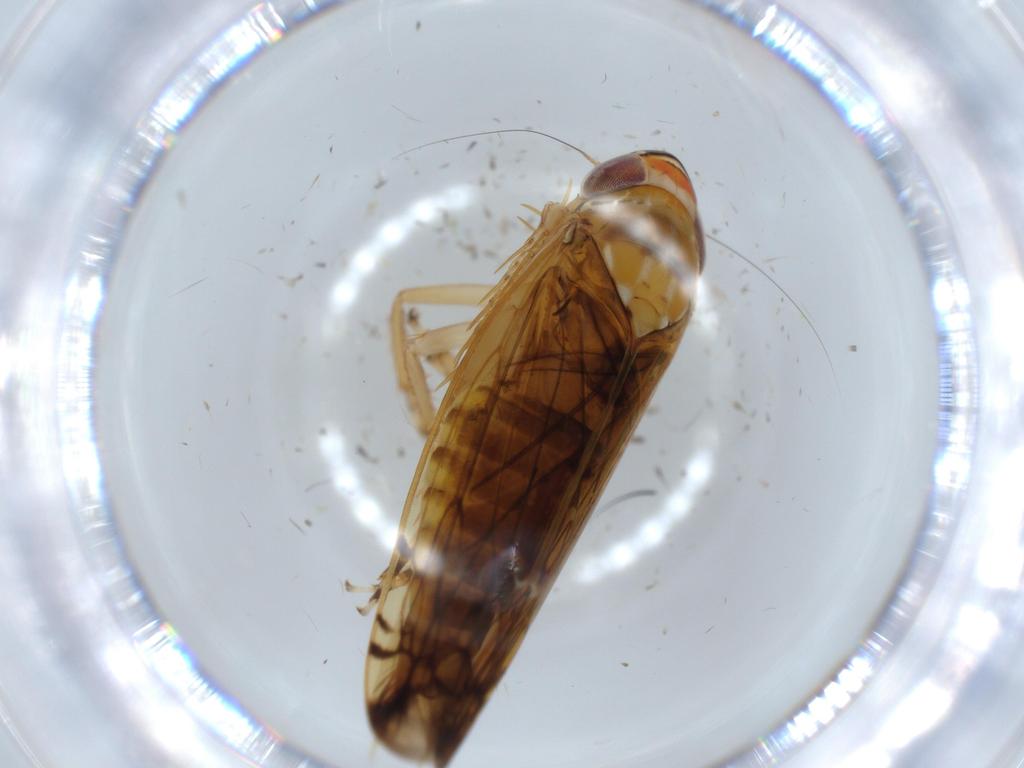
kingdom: Animalia
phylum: Arthropoda
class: Insecta
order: Hemiptera
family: Cicadellidae
